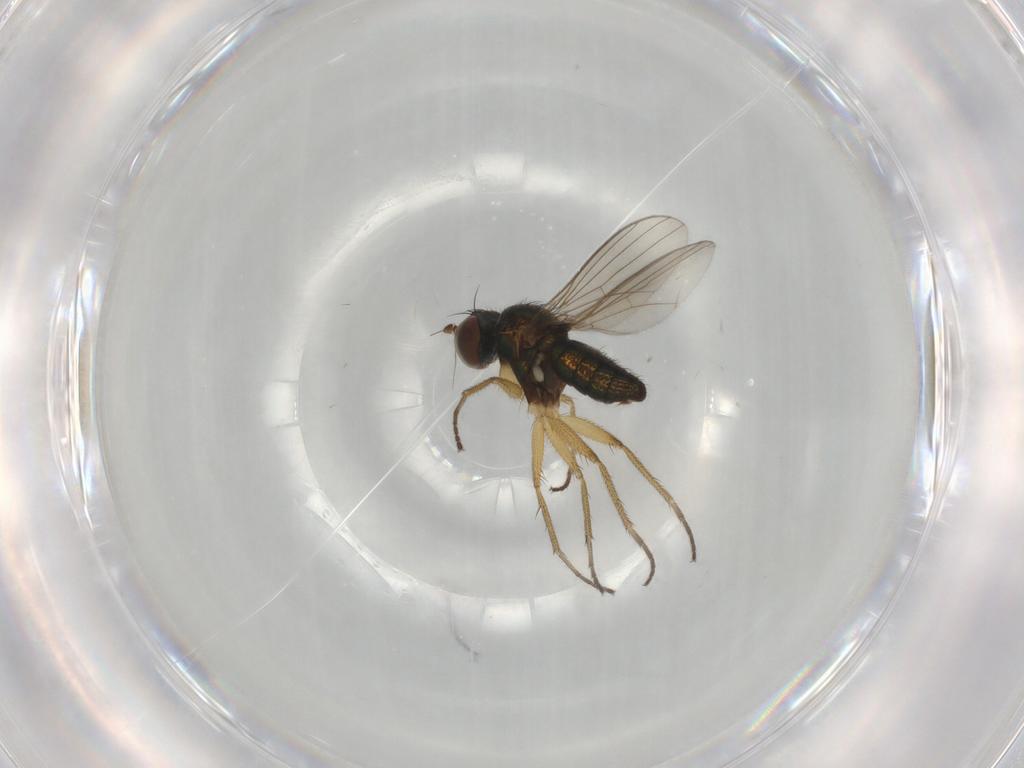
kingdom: Animalia
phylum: Arthropoda
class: Insecta
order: Diptera
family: Dolichopodidae
